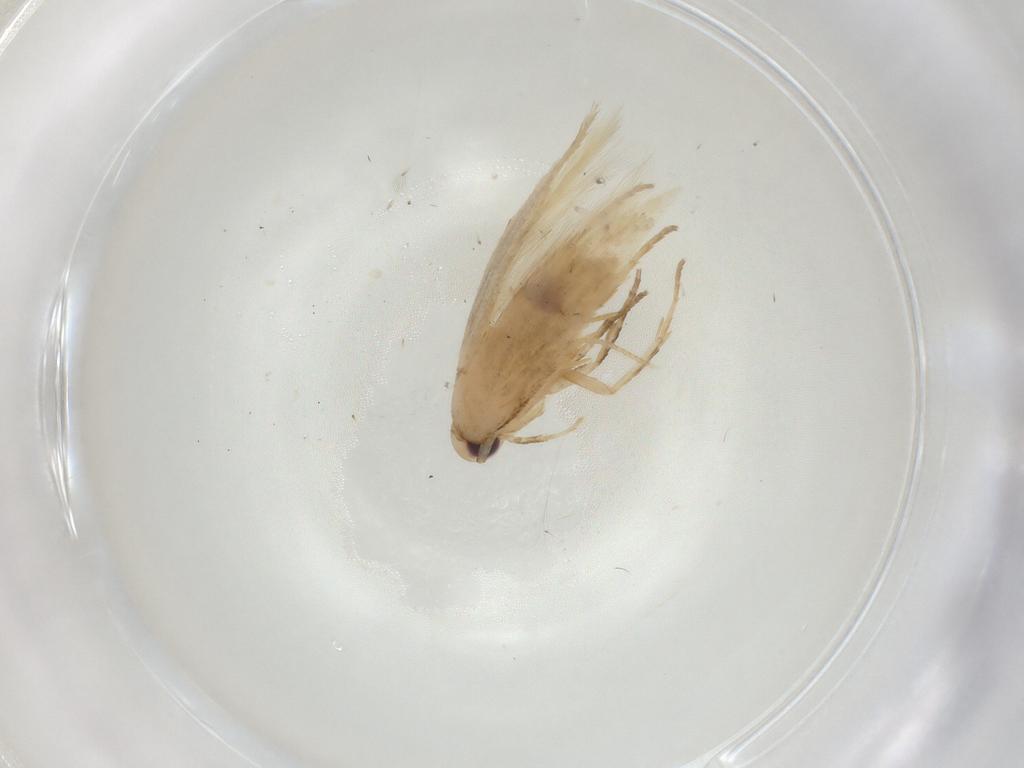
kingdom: Animalia
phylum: Arthropoda
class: Insecta
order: Lepidoptera
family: Cosmopterigidae
